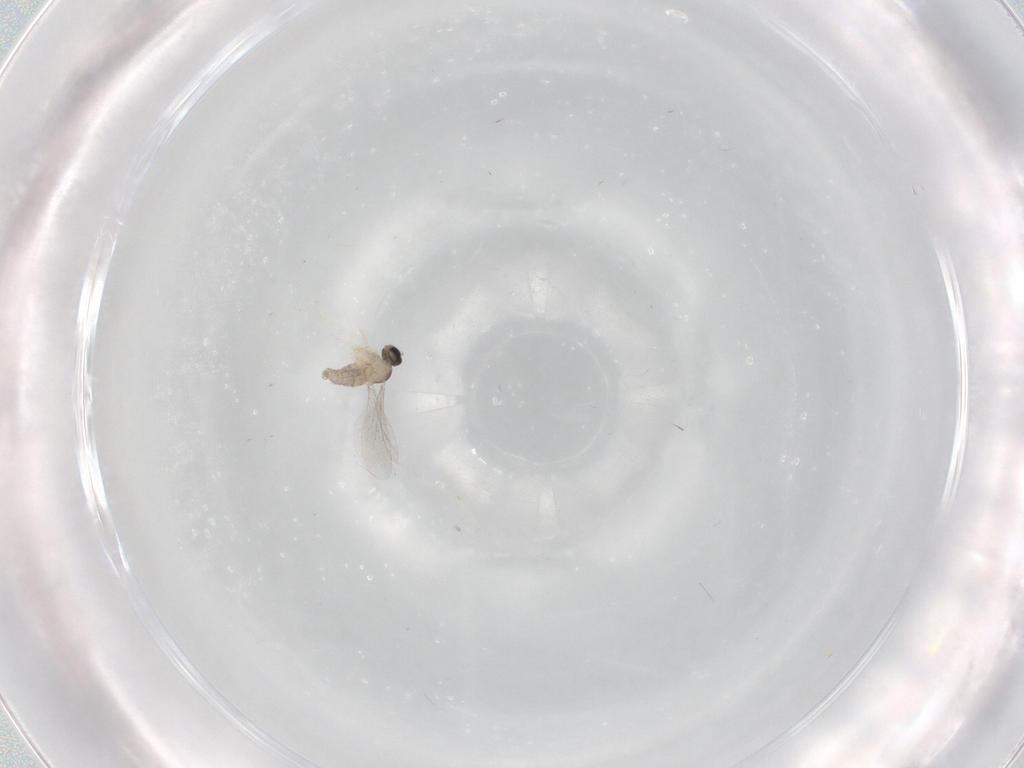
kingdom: Animalia
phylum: Arthropoda
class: Insecta
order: Diptera
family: Cecidomyiidae
